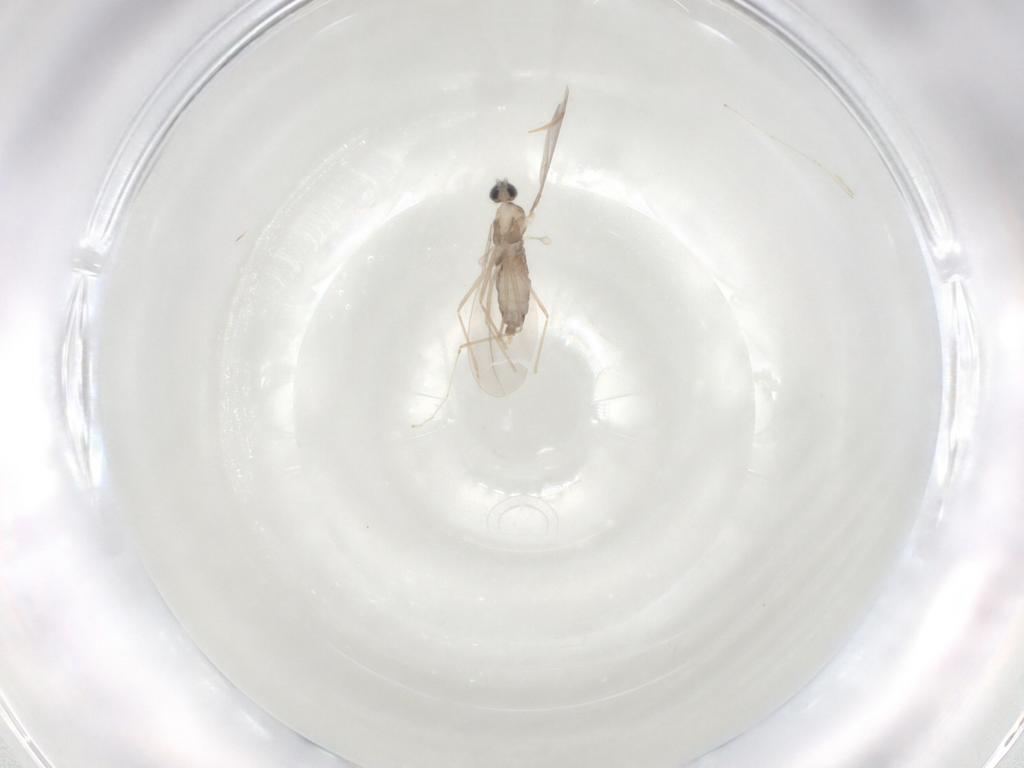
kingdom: Animalia
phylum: Arthropoda
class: Insecta
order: Diptera
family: Cecidomyiidae
